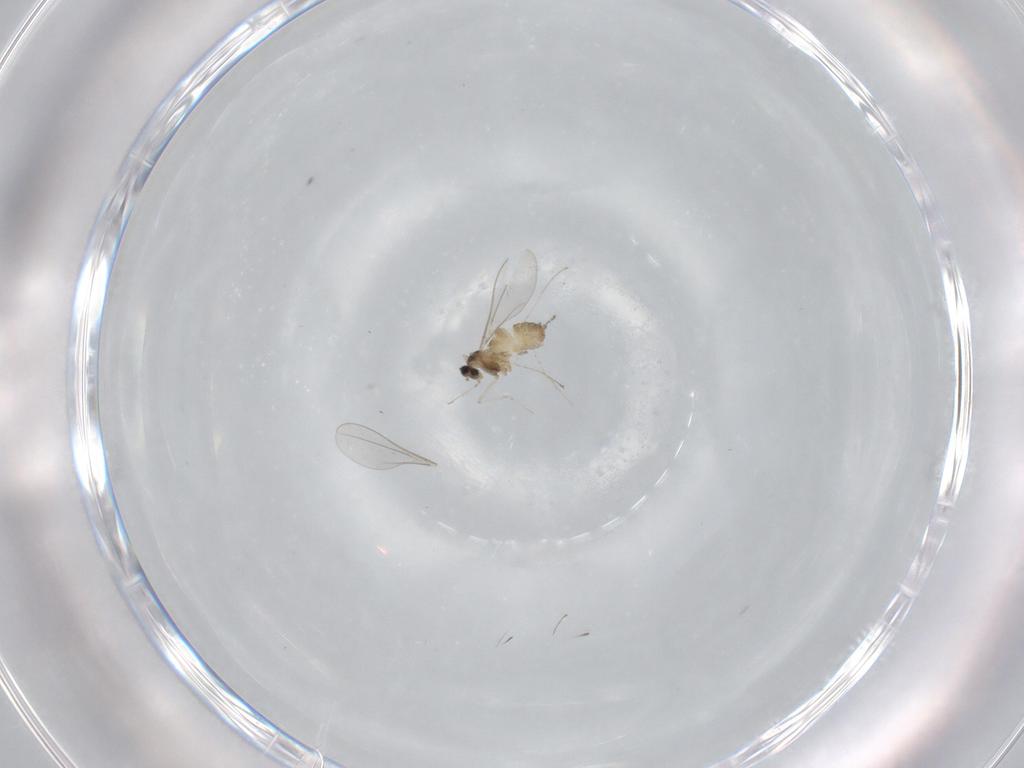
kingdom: Animalia
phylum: Arthropoda
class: Insecta
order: Diptera
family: Cecidomyiidae
